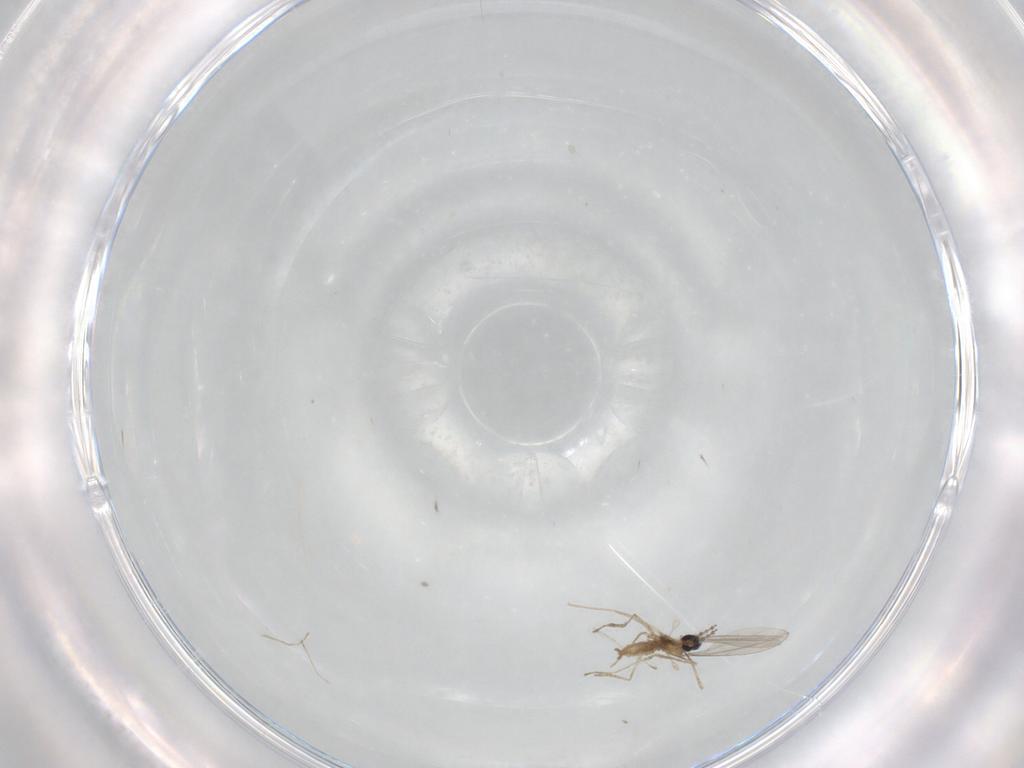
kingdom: Animalia
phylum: Arthropoda
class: Insecta
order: Diptera
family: Cecidomyiidae
